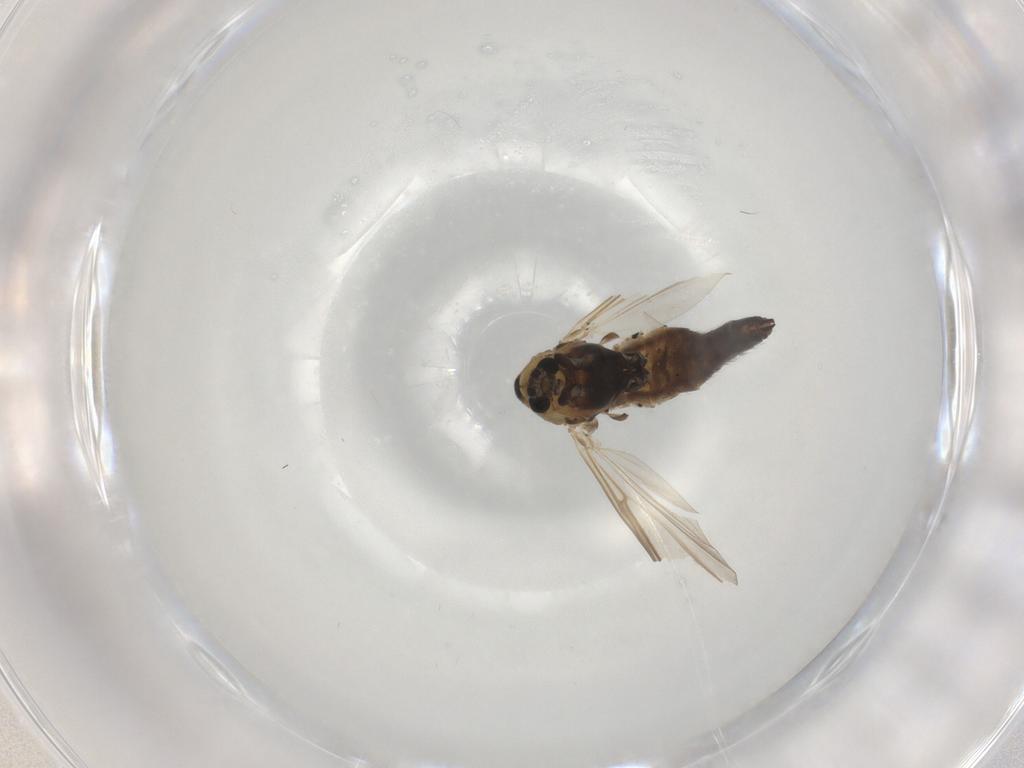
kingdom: Animalia
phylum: Arthropoda
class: Insecta
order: Diptera
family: Chironomidae
